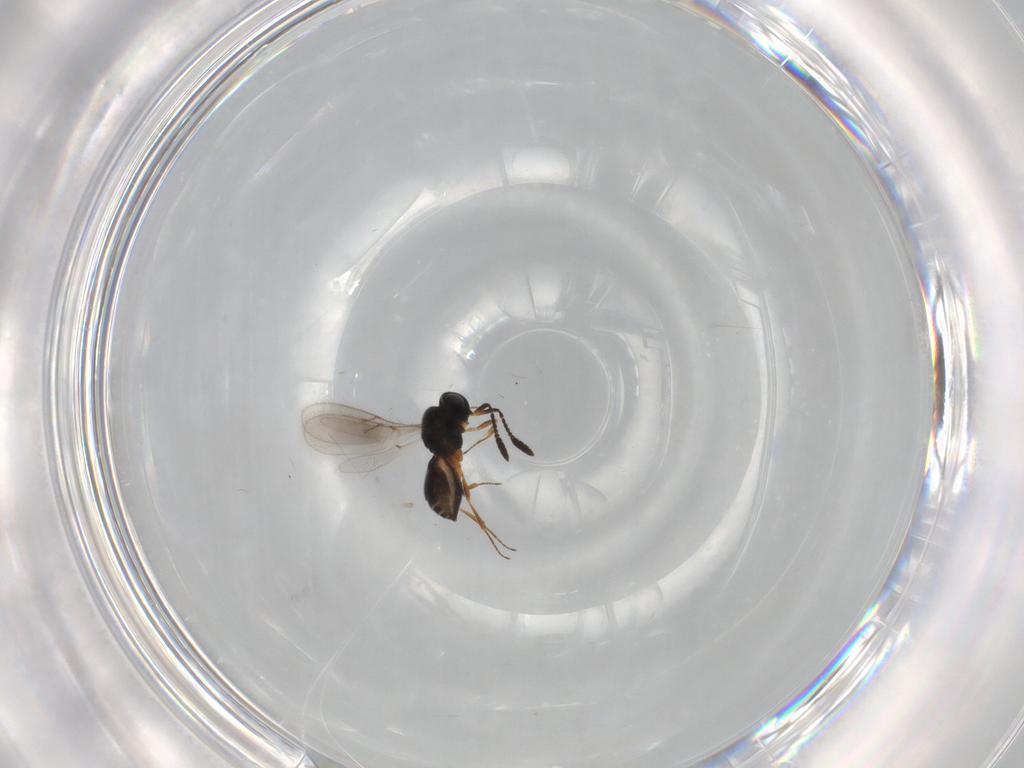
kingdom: Animalia
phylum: Arthropoda
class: Insecta
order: Hymenoptera
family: Scelionidae
